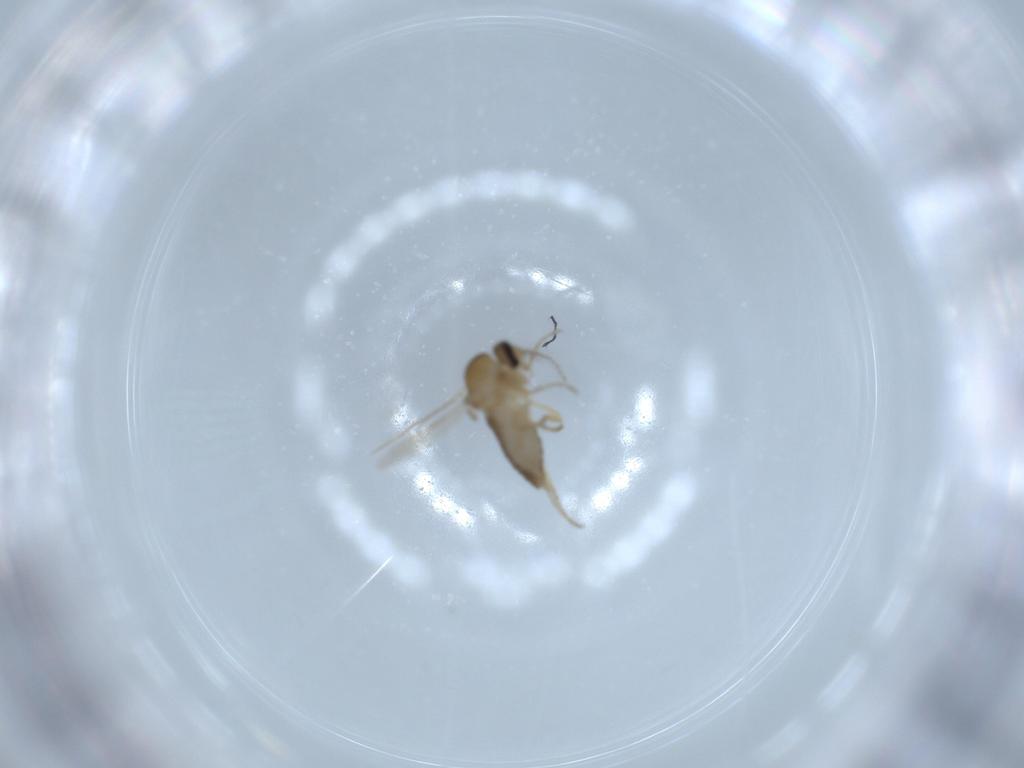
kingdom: Animalia
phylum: Arthropoda
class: Insecta
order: Diptera
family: Ceratopogonidae
